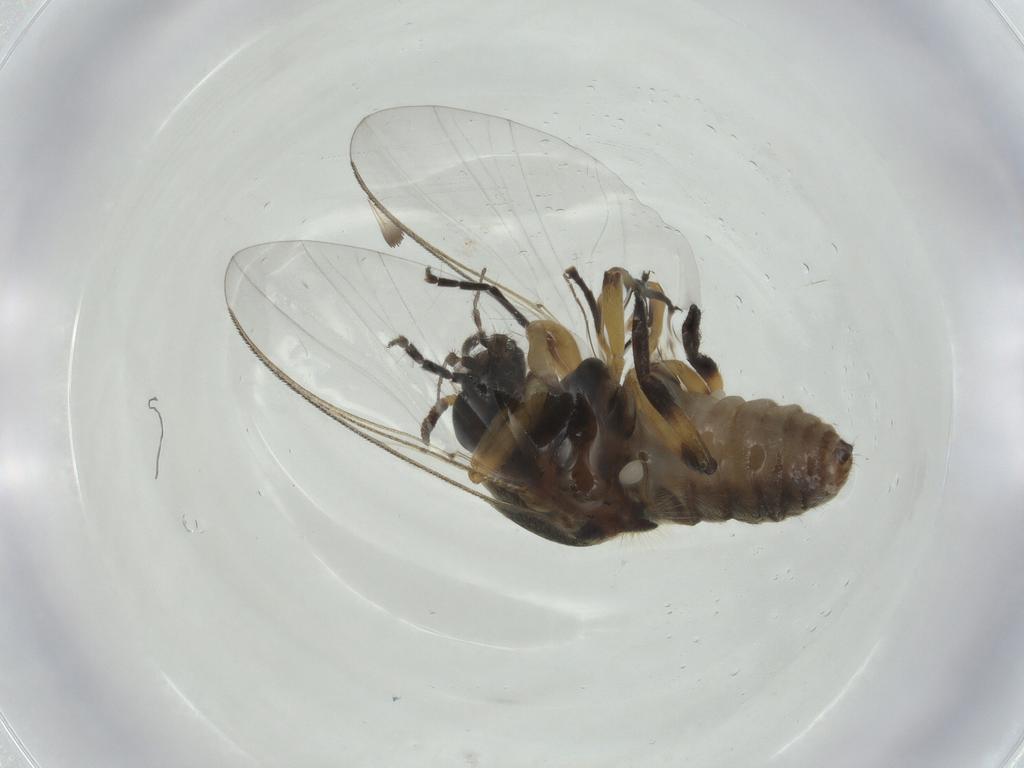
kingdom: Animalia
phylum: Arthropoda
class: Insecta
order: Diptera
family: Simuliidae
